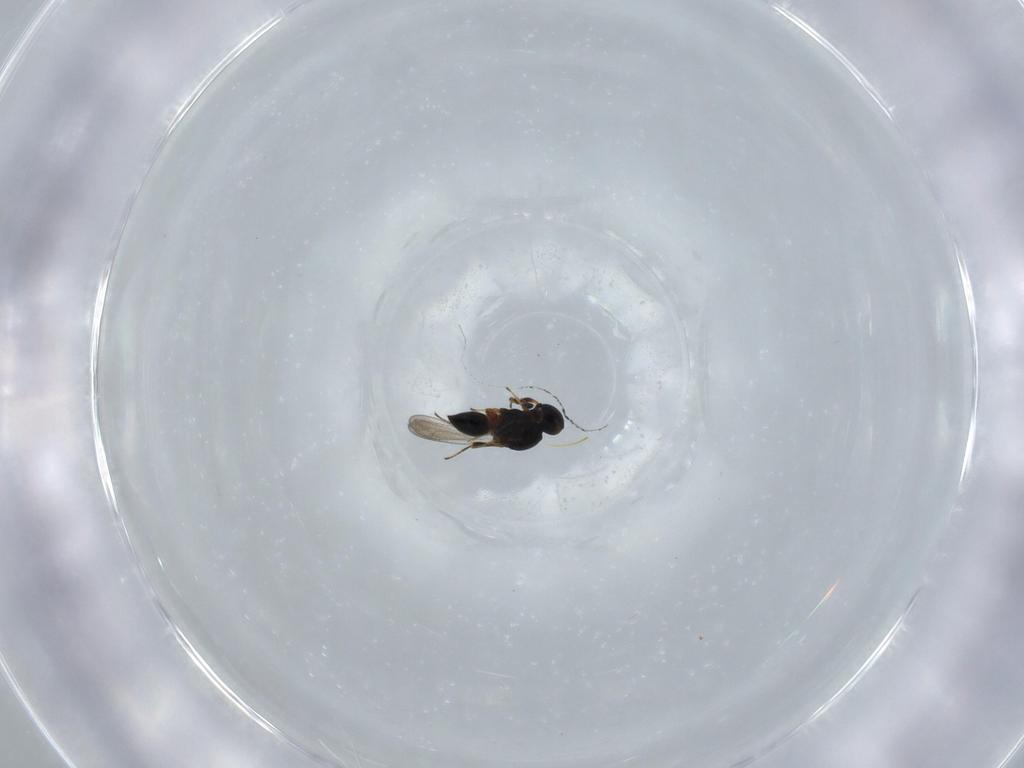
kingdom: Animalia
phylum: Arthropoda
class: Insecta
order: Hymenoptera
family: Platygastridae
